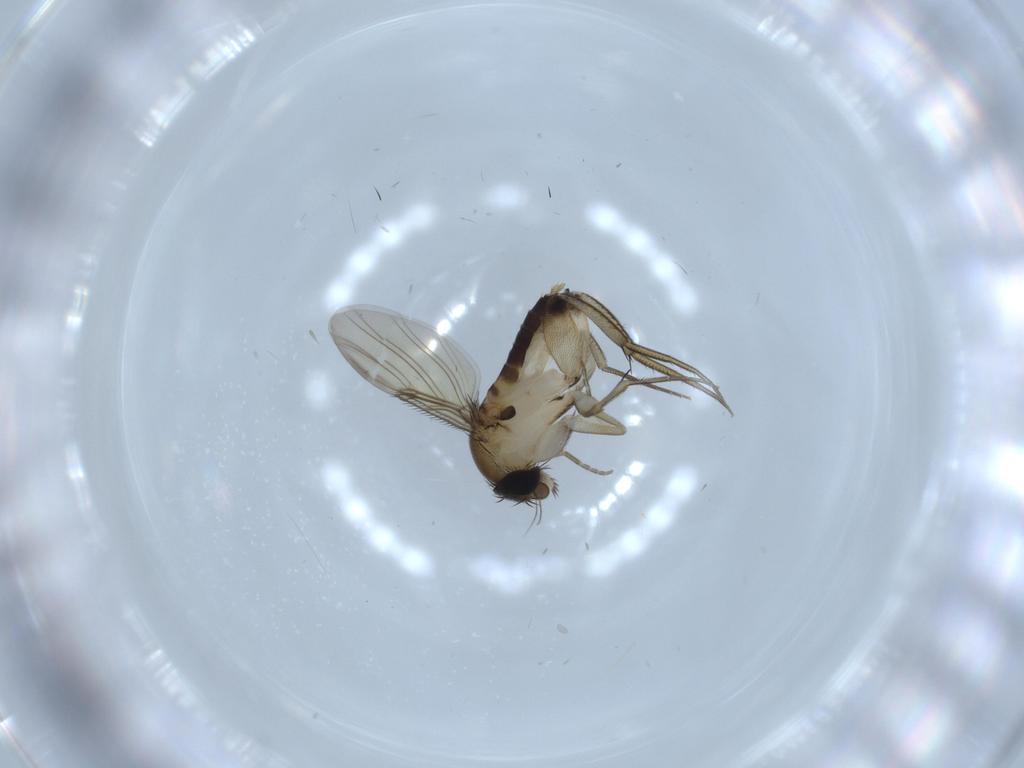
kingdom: Animalia
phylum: Arthropoda
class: Insecta
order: Diptera
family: Phoridae
